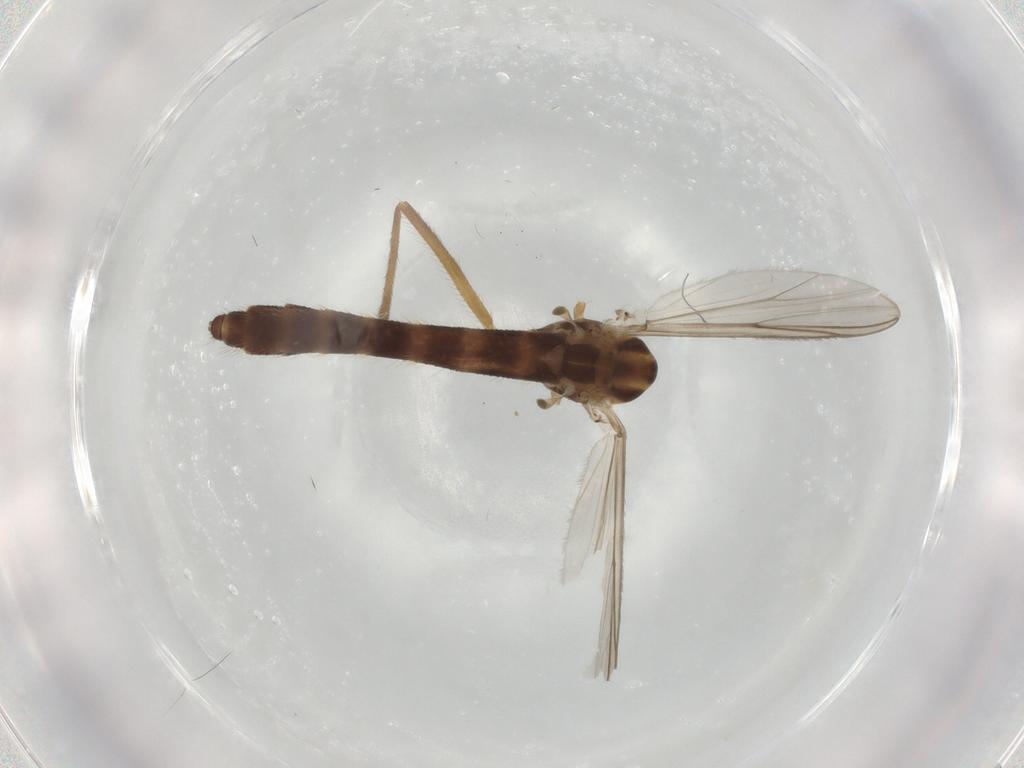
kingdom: Animalia
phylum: Arthropoda
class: Insecta
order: Diptera
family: Chironomidae
